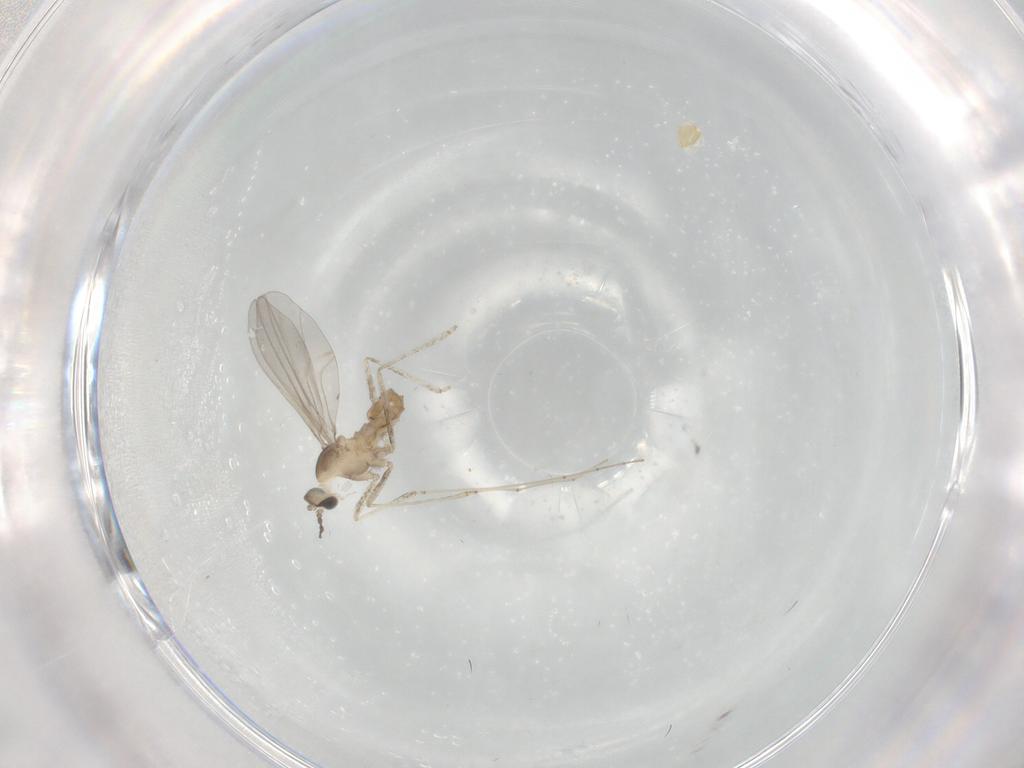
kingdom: Animalia
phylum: Arthropoda
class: Insecta
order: Diptera
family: Cecidomyiidae
